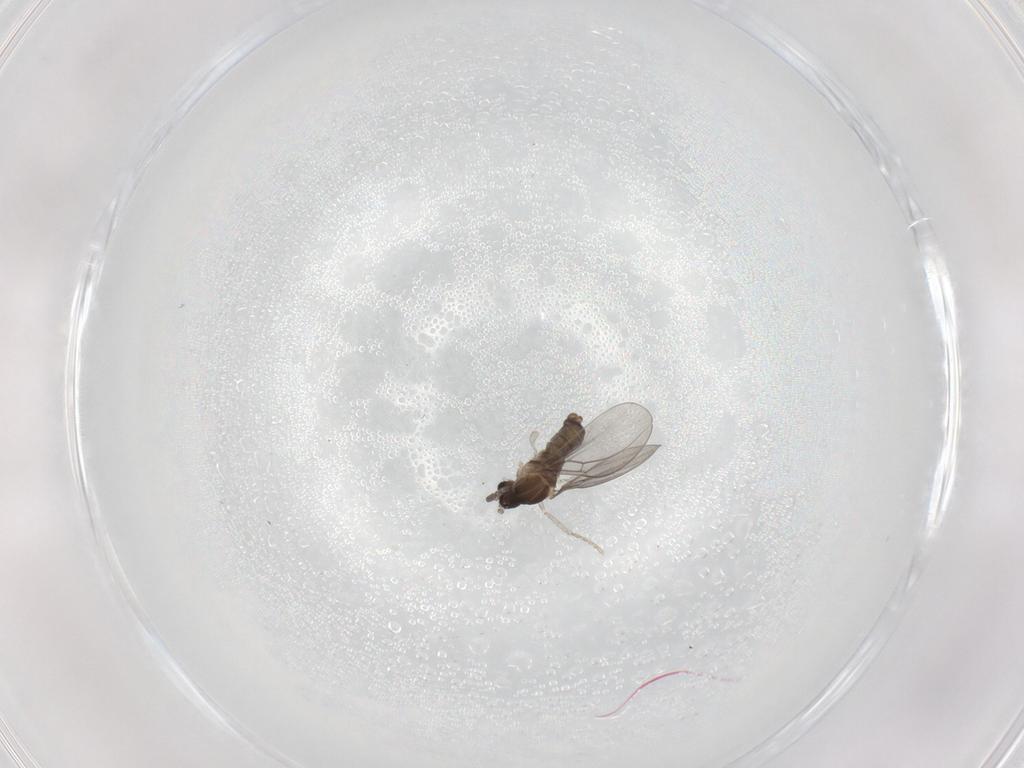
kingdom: Animalia
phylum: Arthropoda
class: Insecta
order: Diptera
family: Cecidomyiidae
